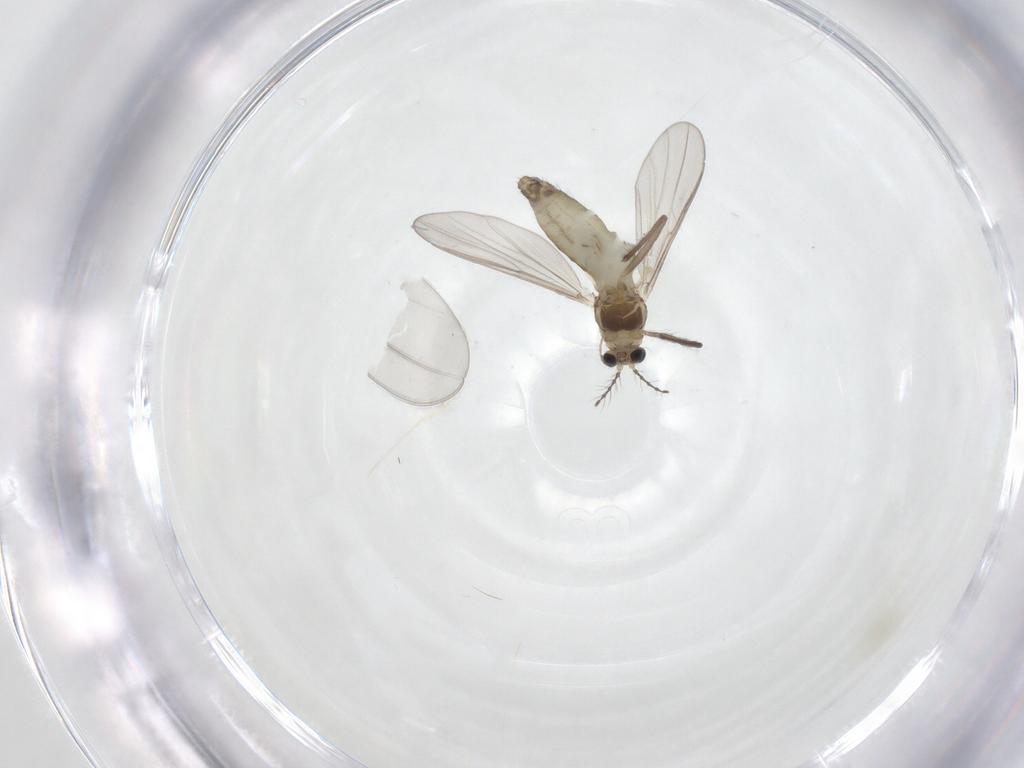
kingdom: Animalia
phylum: Arthropoda
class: Insecta
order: Diptera
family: Chironomidae
